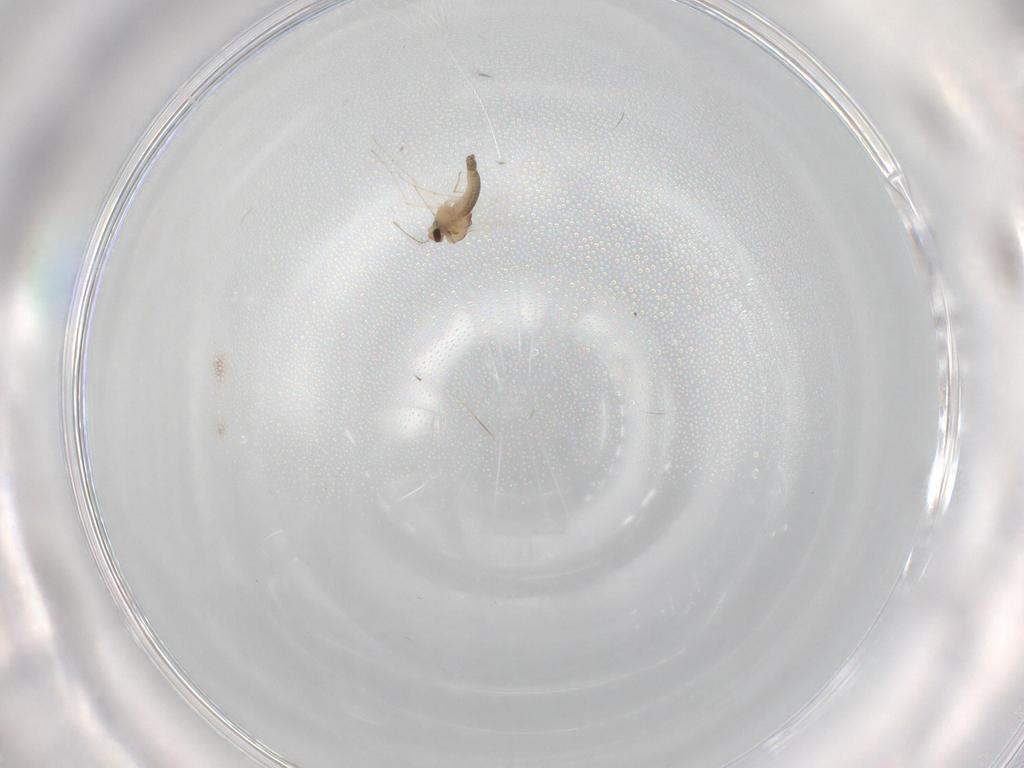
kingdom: Animalia
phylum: Arthropoda
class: Insecta
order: Diptera
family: Chironomidae
